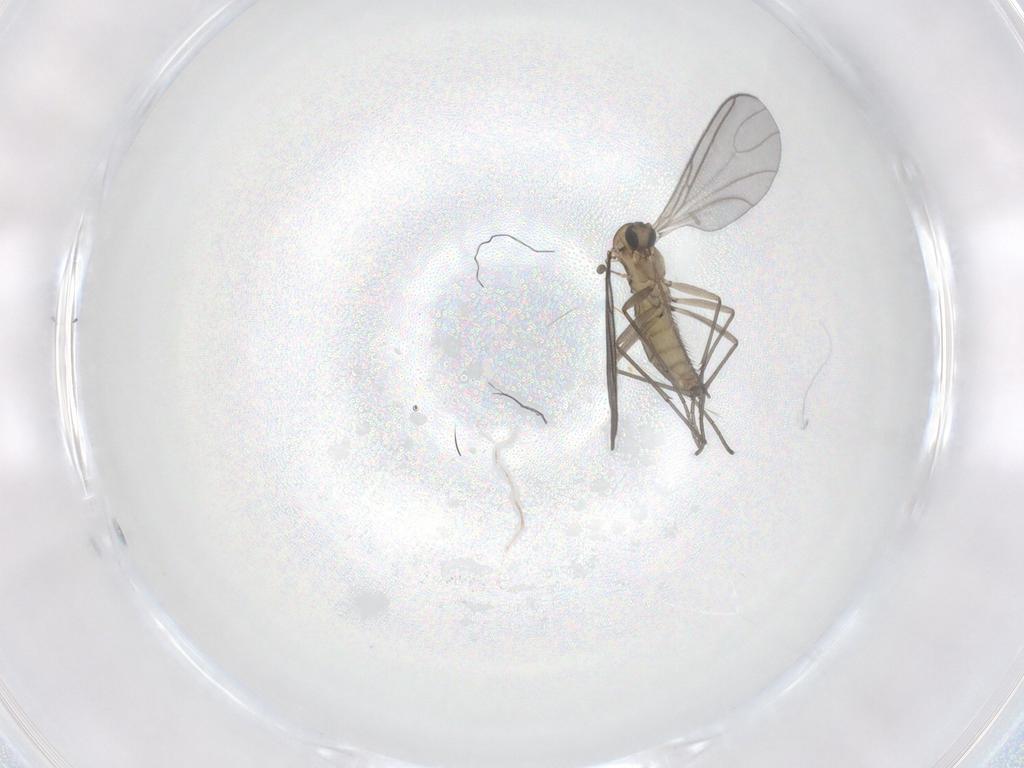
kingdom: Animalia
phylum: Arthropoda
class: Insecta
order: Diptera
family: Sciaridae
